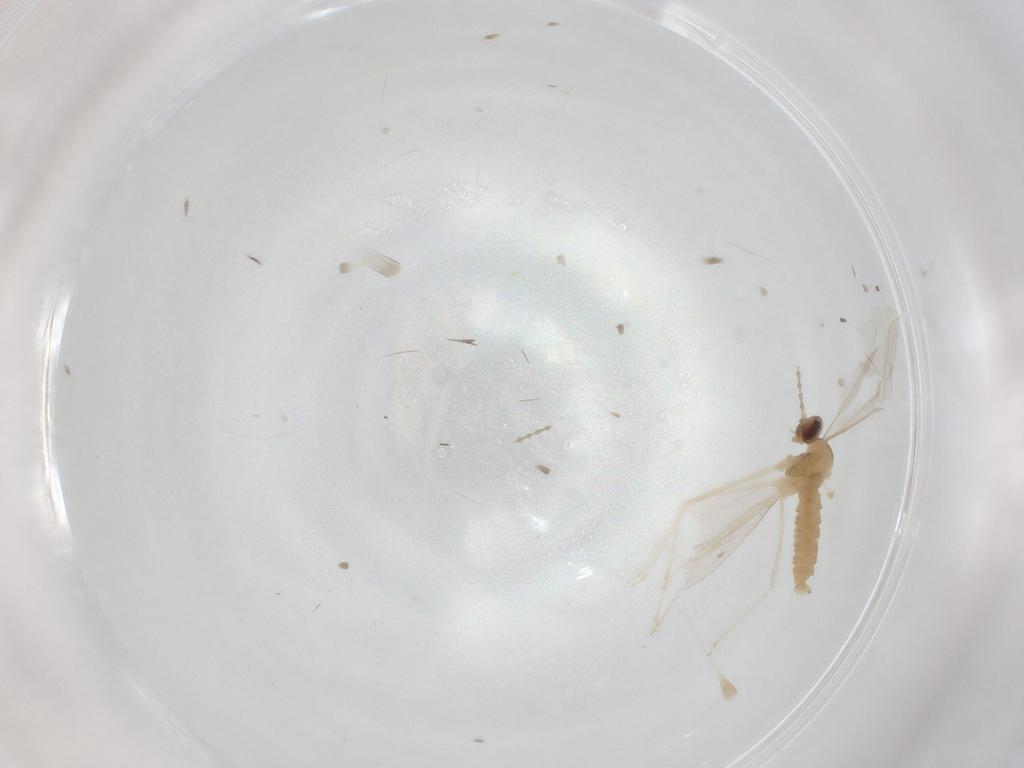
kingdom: Animalia
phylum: Arthropoda
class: Insecta
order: Diptera
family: Cecidomyiidae
